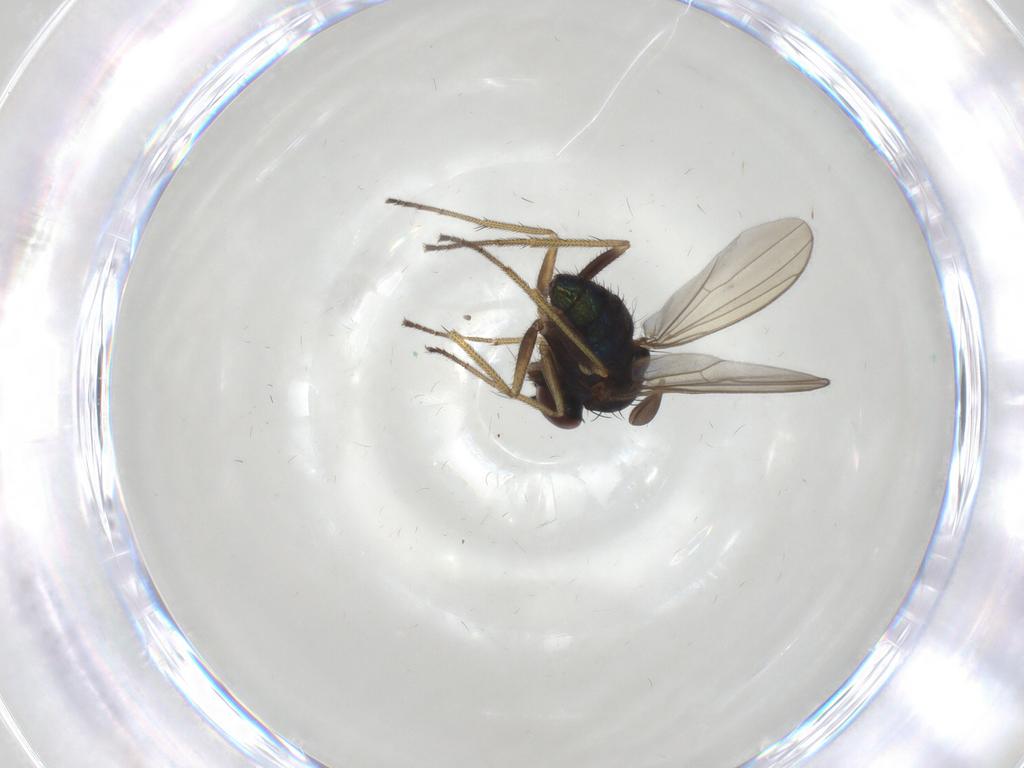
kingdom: Animalia
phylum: Arthropoda
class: Insecta
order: Diptera
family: Dolichopodidae
